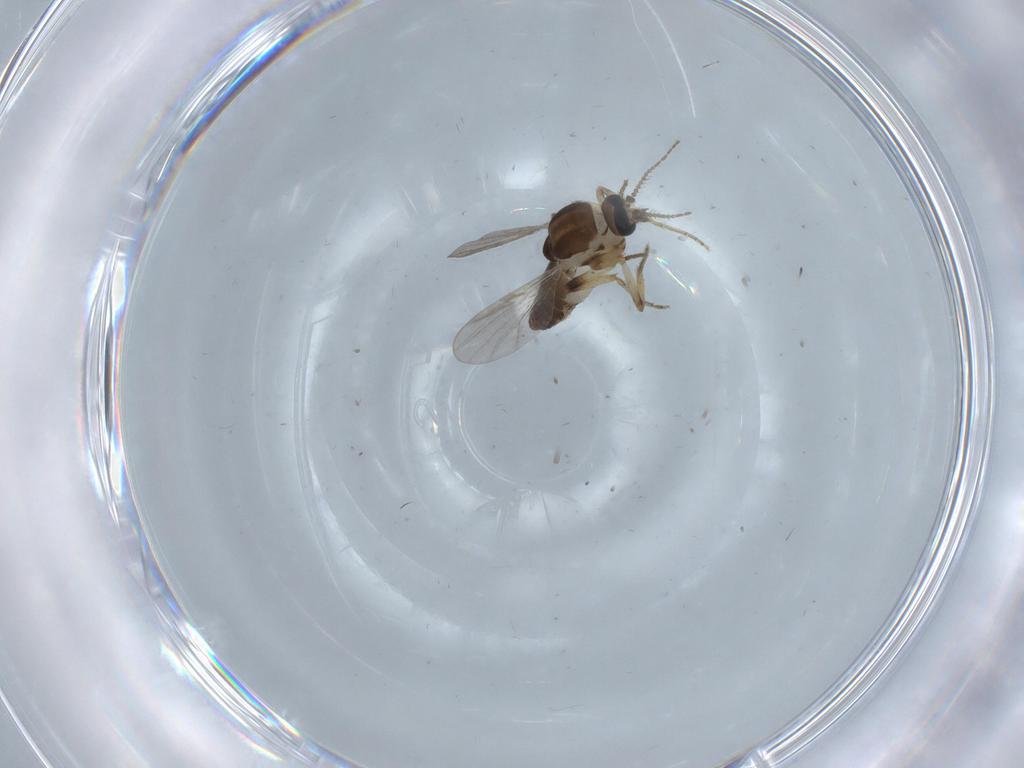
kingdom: Animalia
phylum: Arthropoda
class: Insecta
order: Diptera
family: Ceratopogonidae
